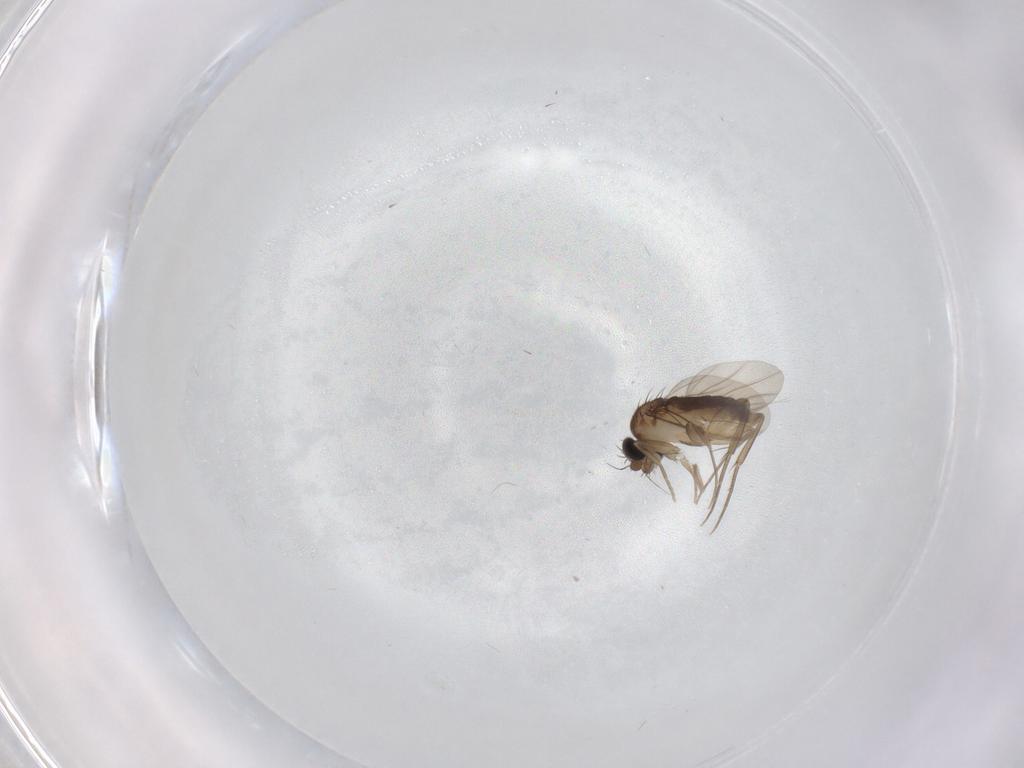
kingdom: Animalia
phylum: Arthropoda
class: Insecta
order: Diptera
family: Phoridae
